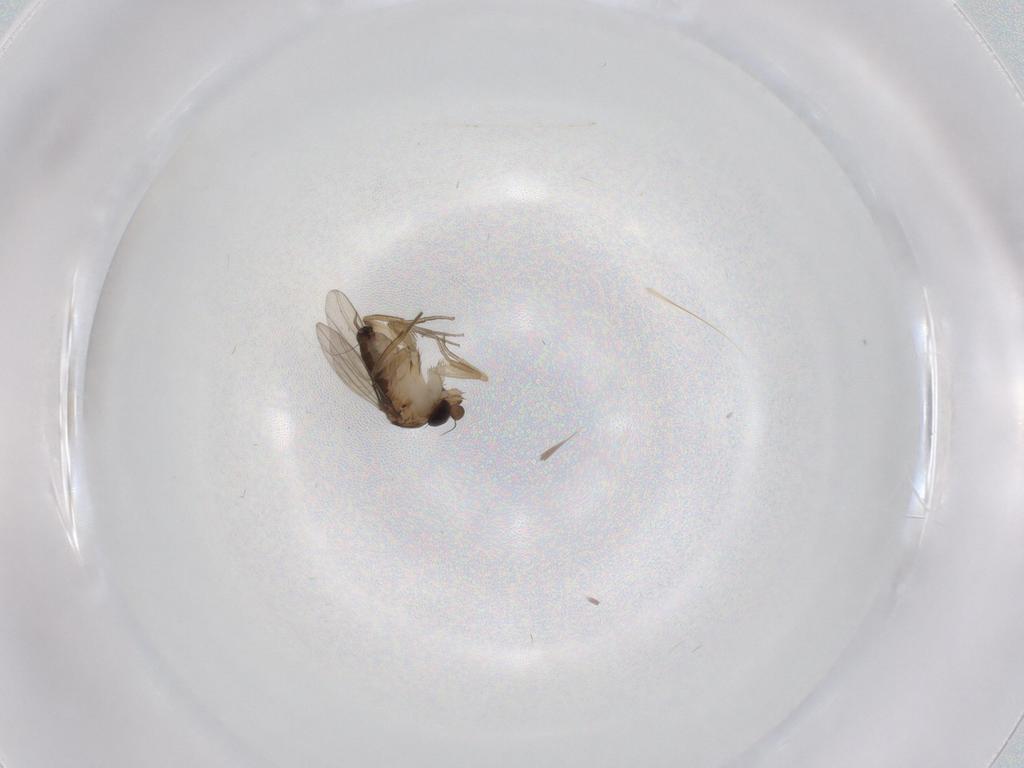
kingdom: Animalia
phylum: Arthropoda
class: Insecta
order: Diptera
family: Phoridae
